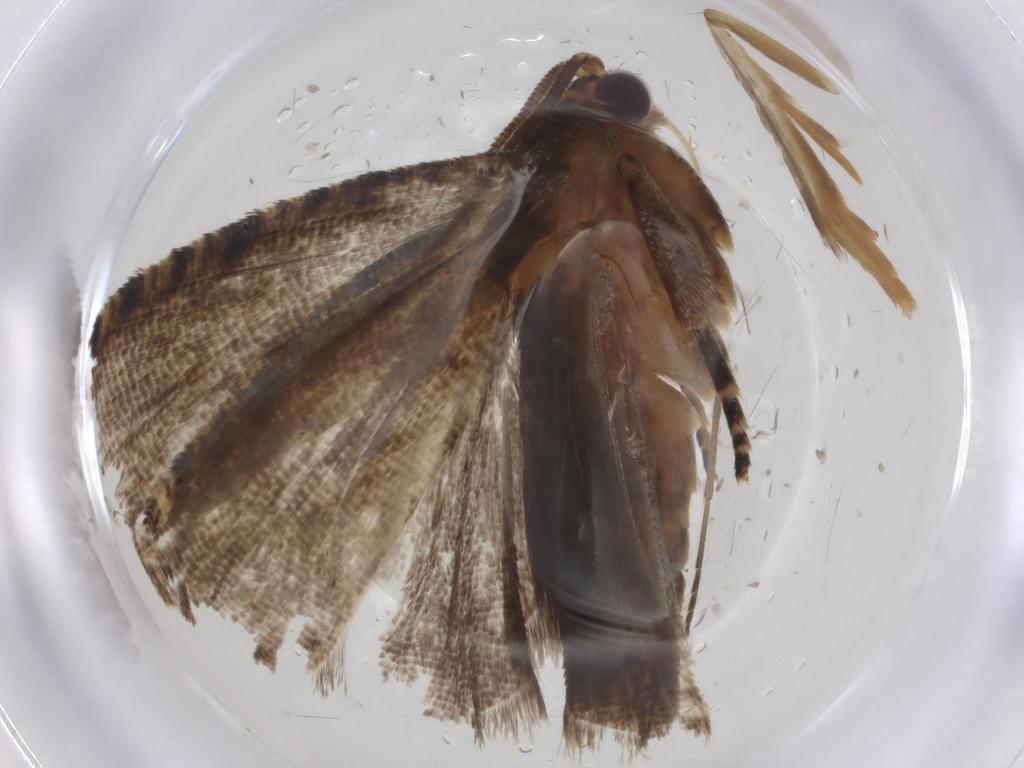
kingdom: Animalia
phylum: Arthropoda
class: Insecta
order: Lepidoptera
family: Tortricidae
